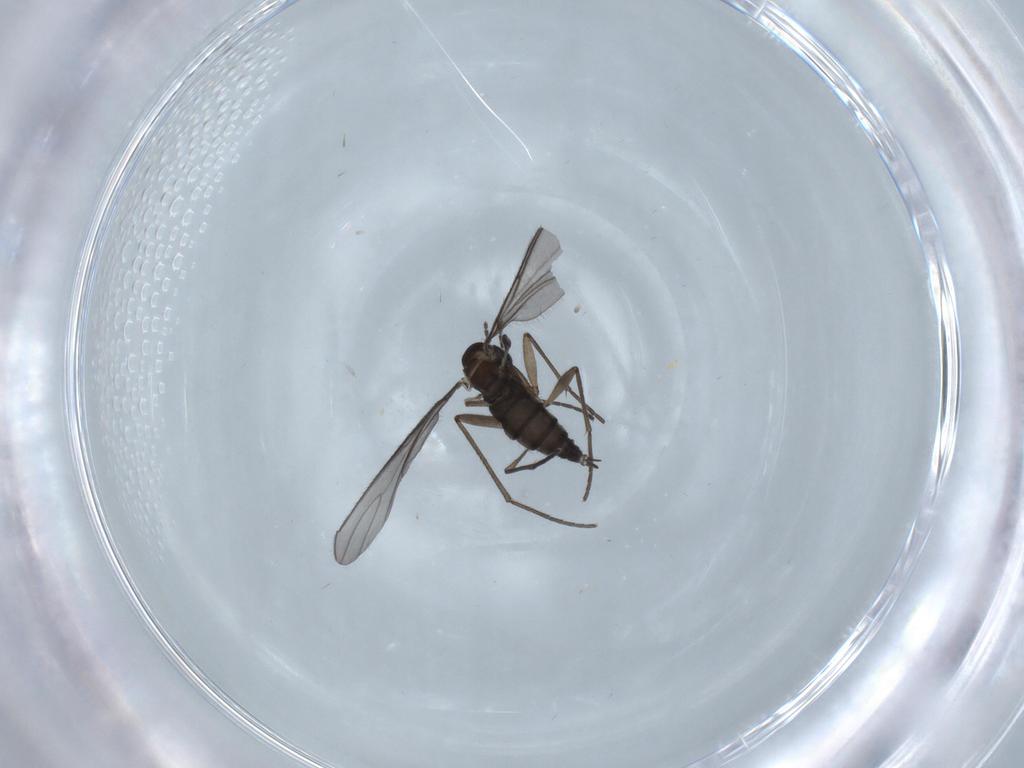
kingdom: Animalia
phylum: Arthropoda
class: Insecta
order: Diptera
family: Sciaridae
